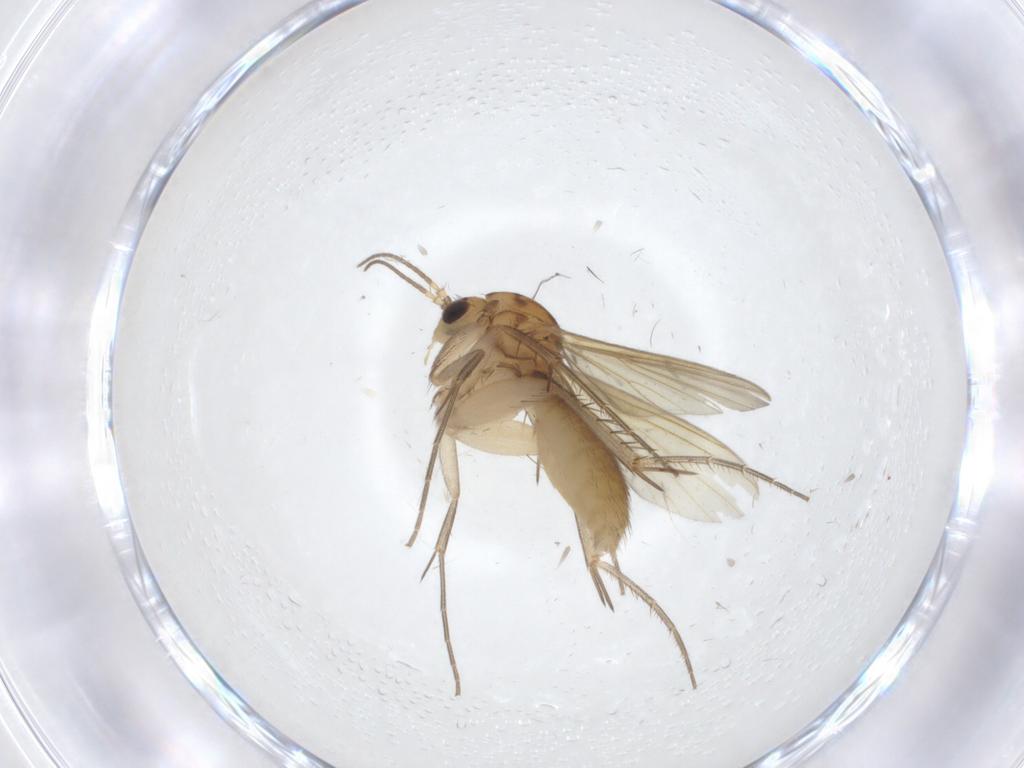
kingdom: Animalia
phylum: Arthropoda
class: Insecta
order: Diptera
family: Mycetophilidae
